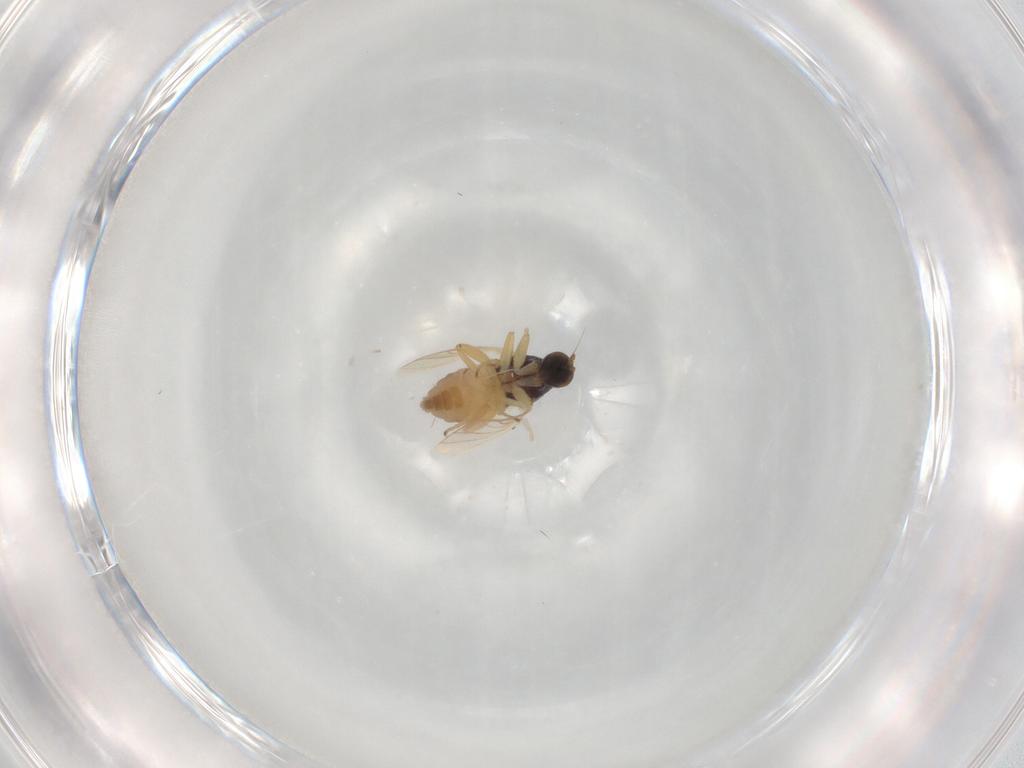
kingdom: Animalia
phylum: Arthropoda
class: Insecta
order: Diptera
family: Hybotidae
